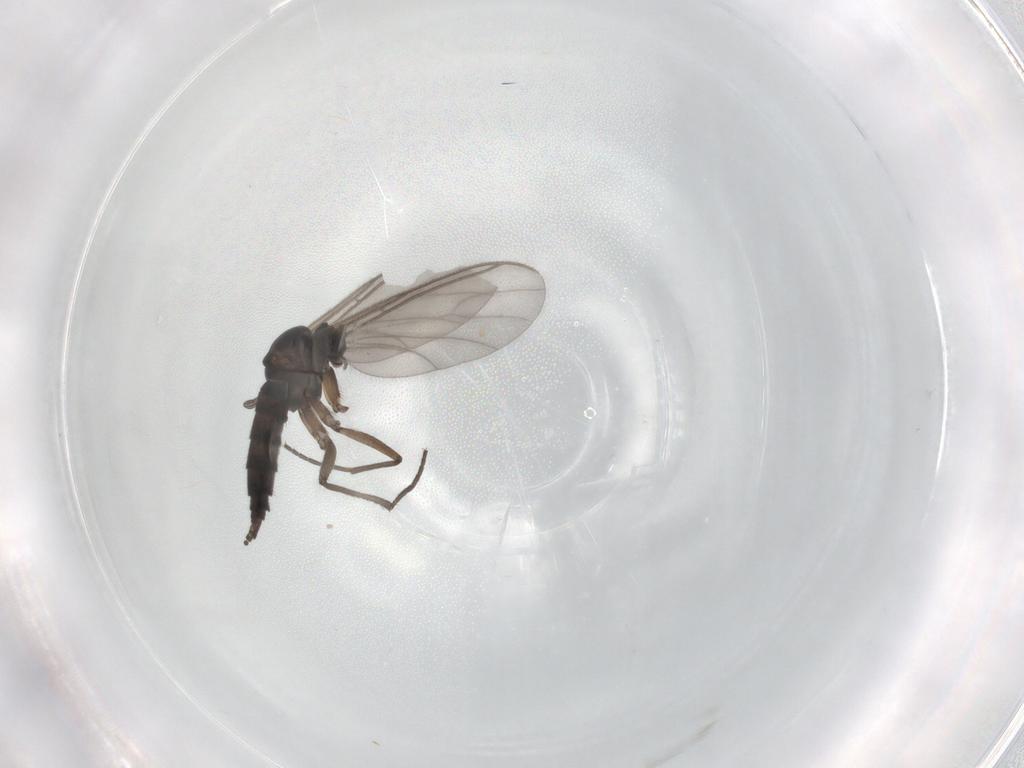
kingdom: Animalia
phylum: Arthropoda
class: Insecta
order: Diptera
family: Sciaridae
